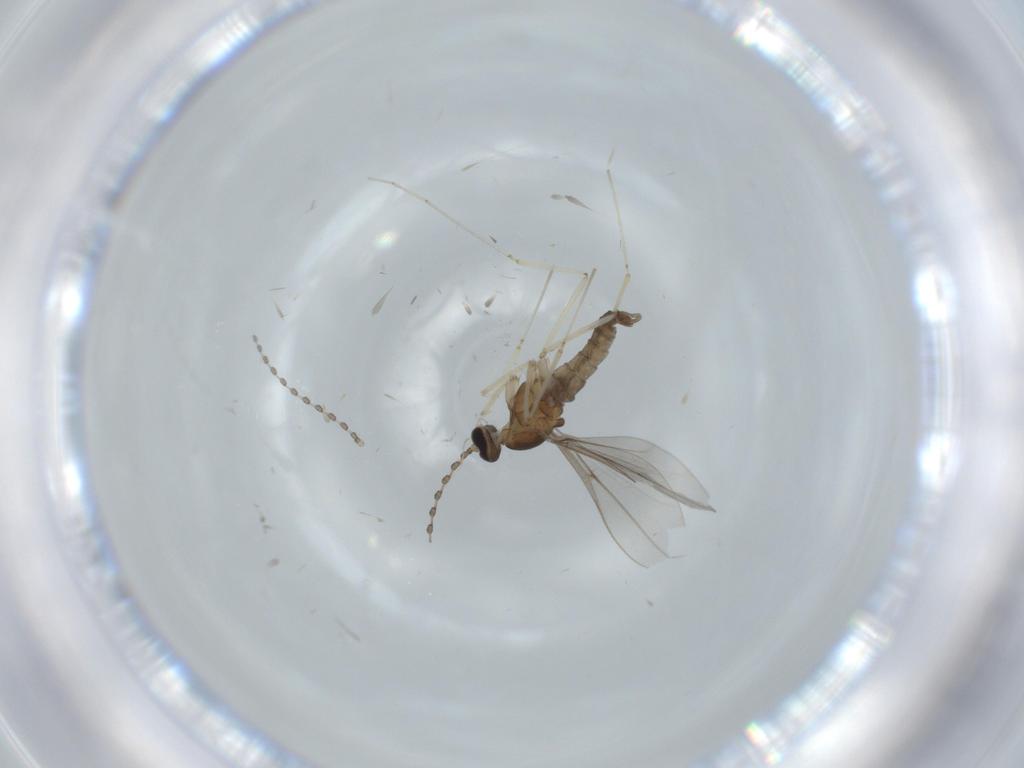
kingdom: Animalia
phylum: Arthropoda
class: Insecta
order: Diptera
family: Cecidomyiidae
